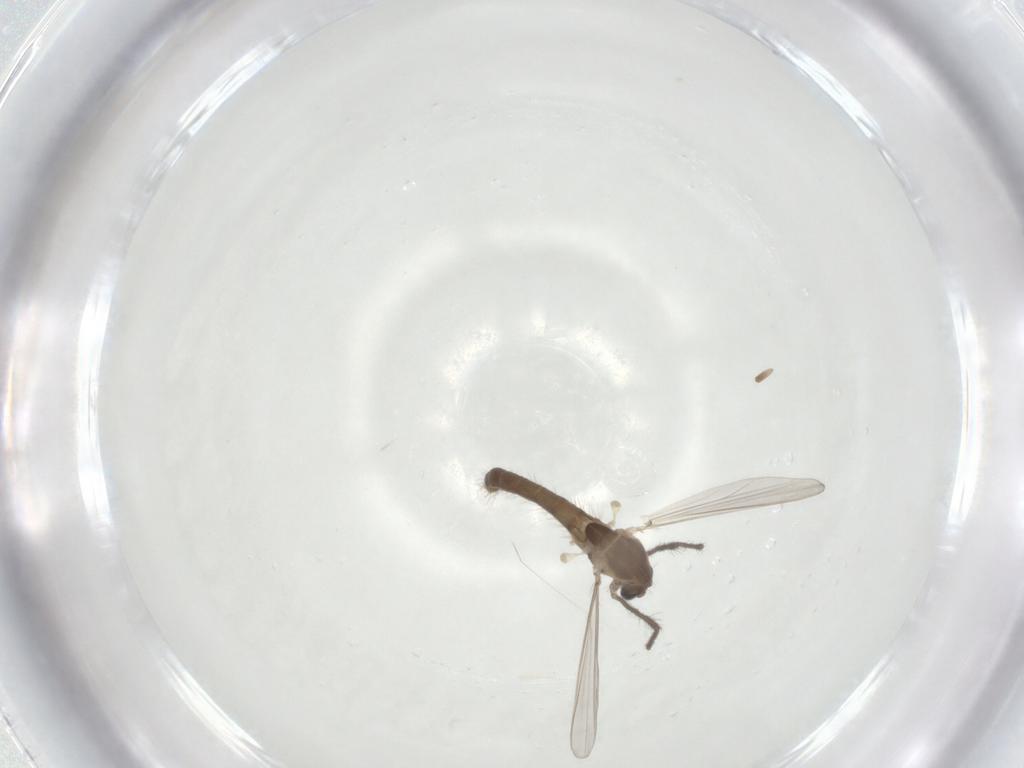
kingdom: Animalia
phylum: Arthropoda
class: Insecta
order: Diptera
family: Chironomidae
